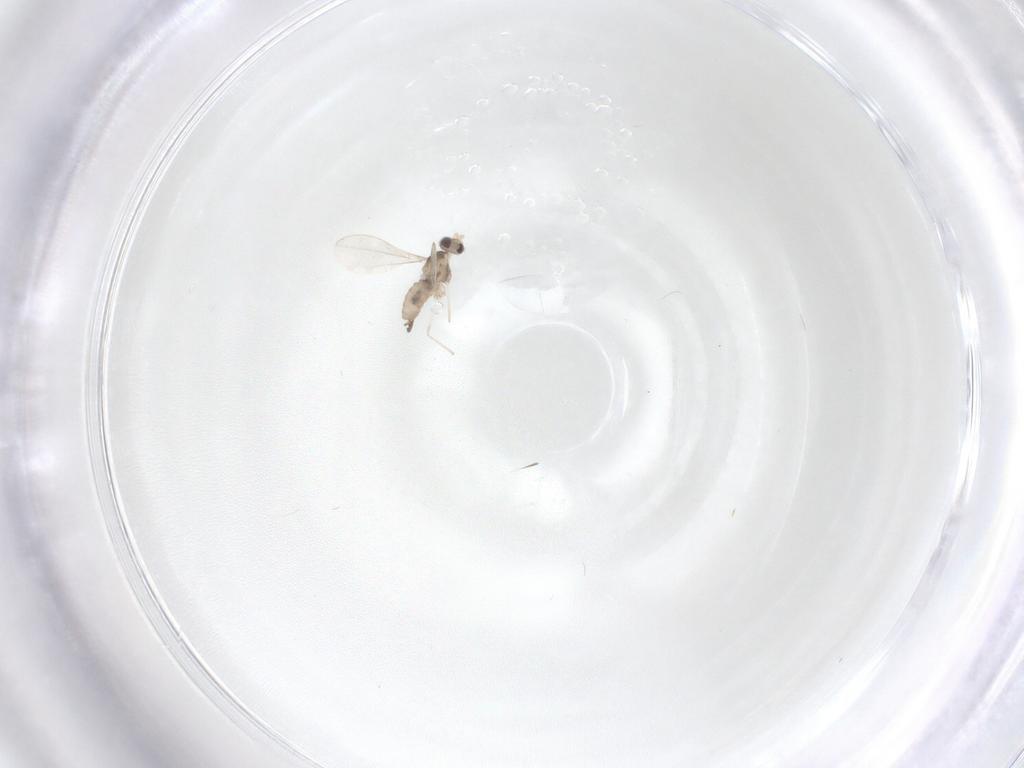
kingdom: Animalia
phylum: Arthropoda
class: Insecta
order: Diptera
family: Cecidomyiidae
